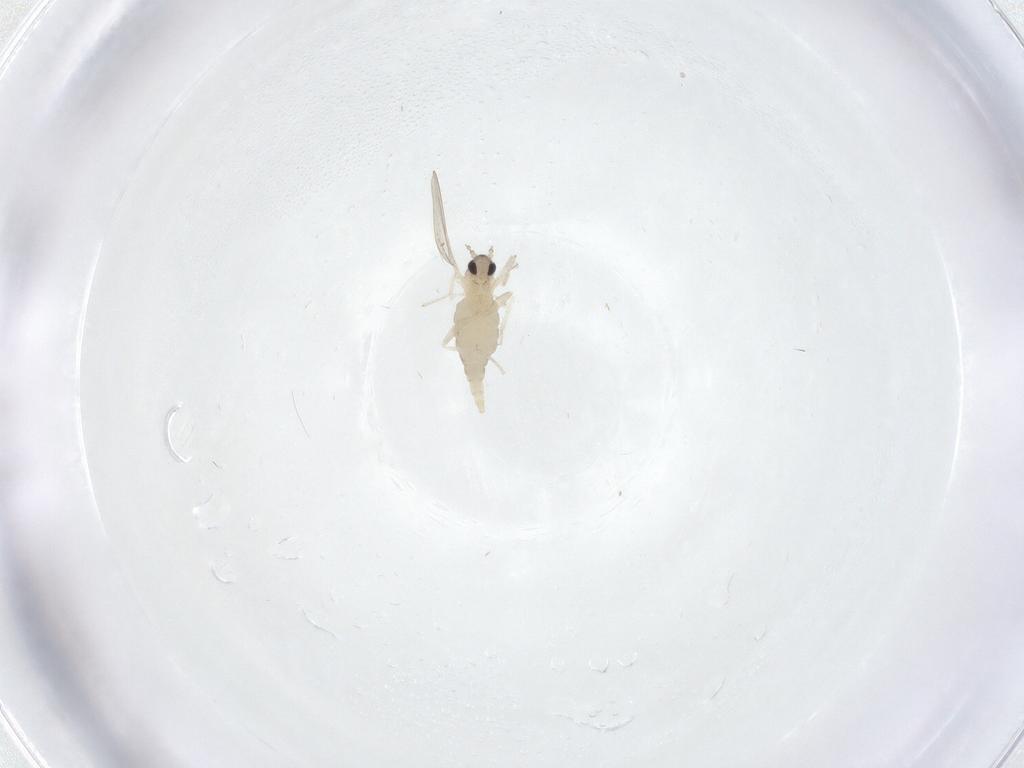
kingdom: Animalia
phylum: Arthropoda
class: Insecta
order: Diptera
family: Cecidomyiidae
